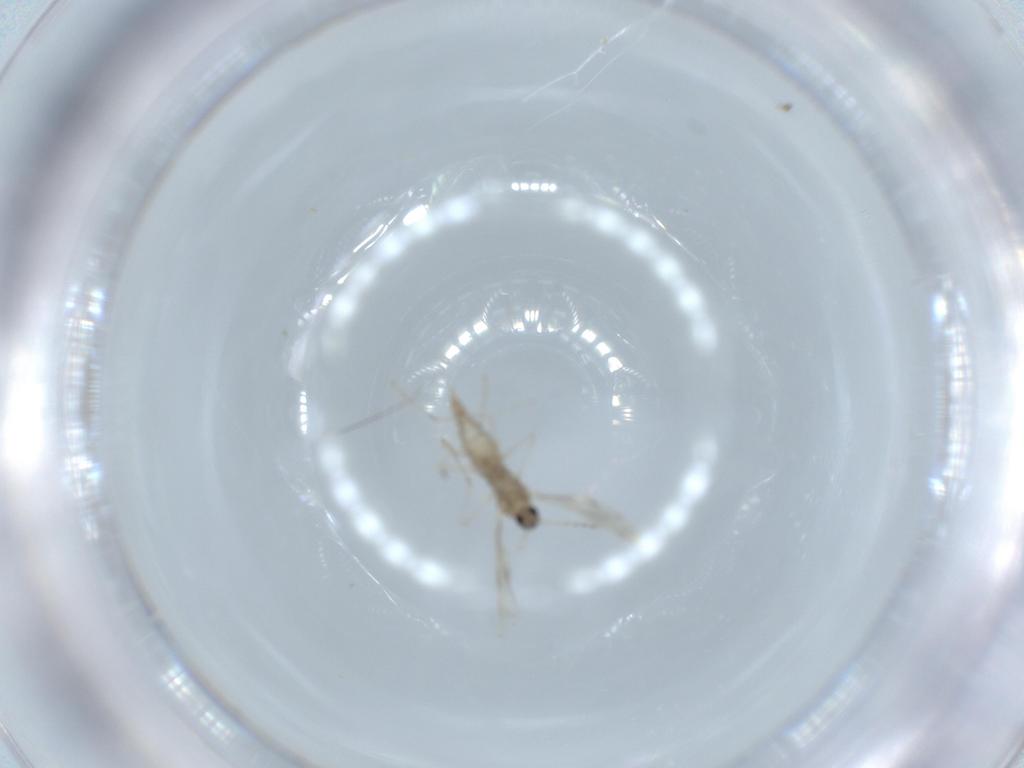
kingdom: Animalia
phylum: Arthropoda
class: Insecta
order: Diptera
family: Cecidomyiidae
